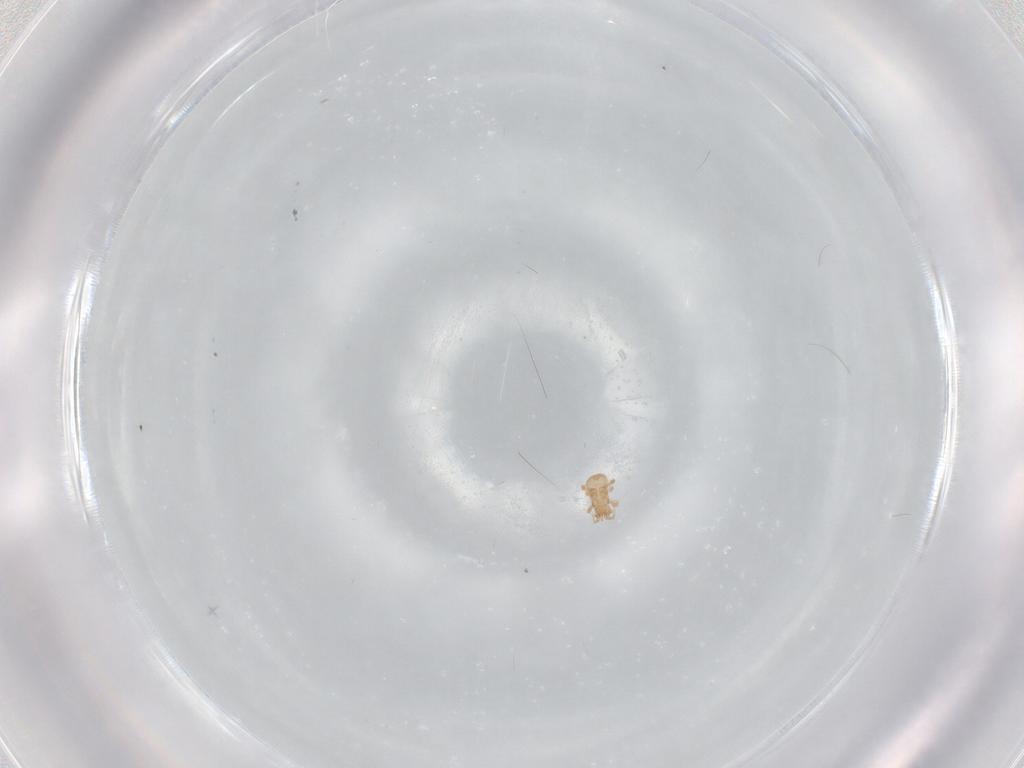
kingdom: Animalia
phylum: Arthropoda
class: Arachnida
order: Mesostigmata
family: Ascidae
